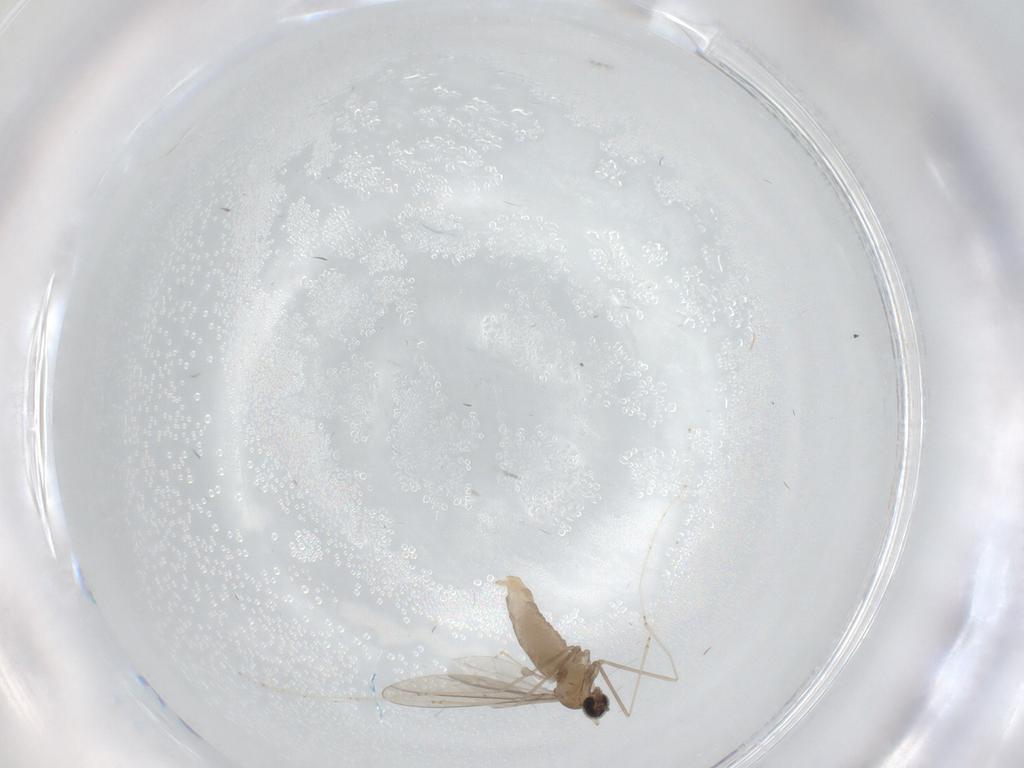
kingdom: Animalia
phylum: Arthropoda
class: Insecta
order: Diptera
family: Cecidomyiidae
